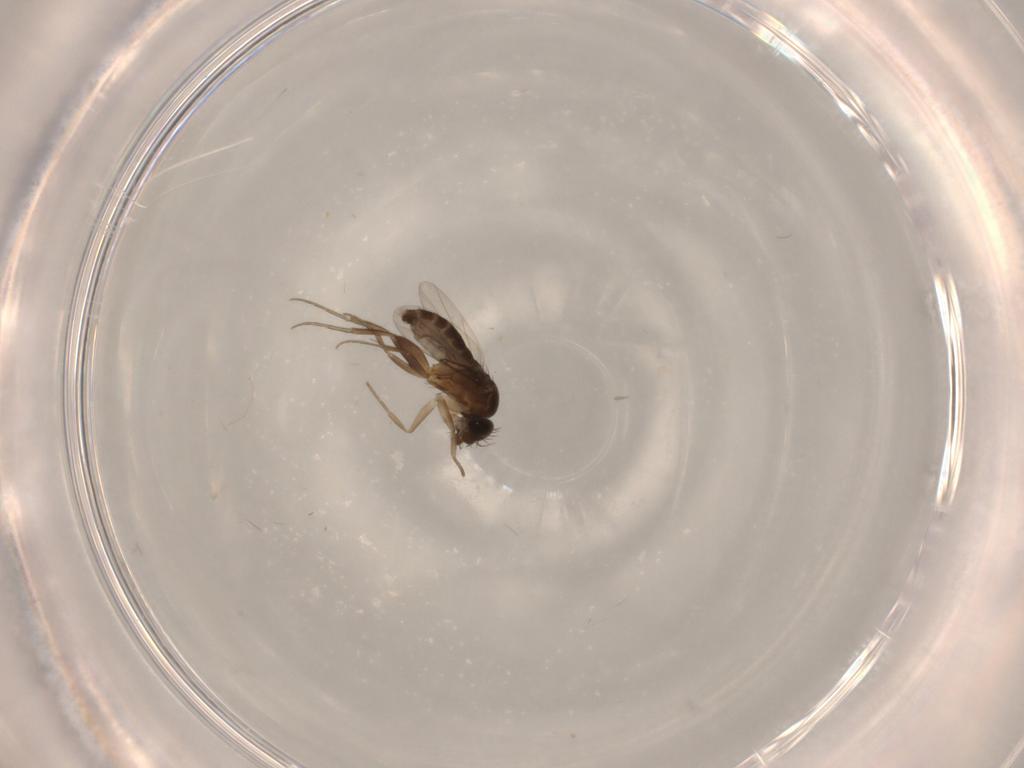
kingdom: Animalia
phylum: Arthropoda
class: Insecta
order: Diptera
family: Phoridae
